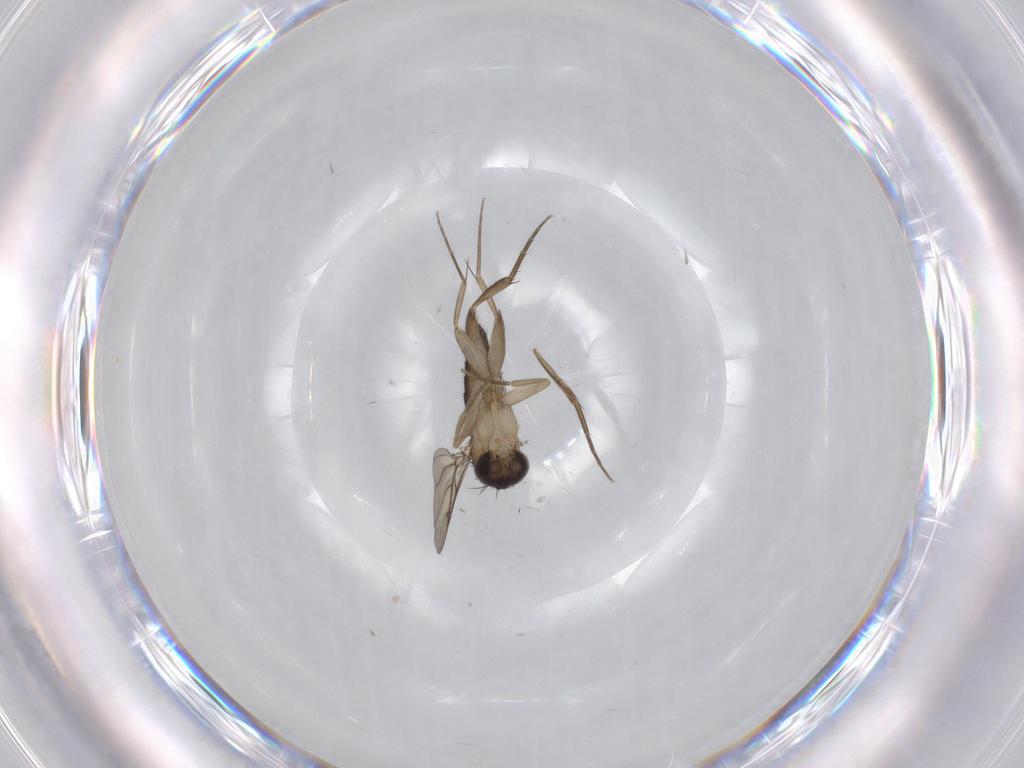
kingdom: Animalia
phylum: Arthropoda
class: Insecta
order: Diptera
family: Phoridae
